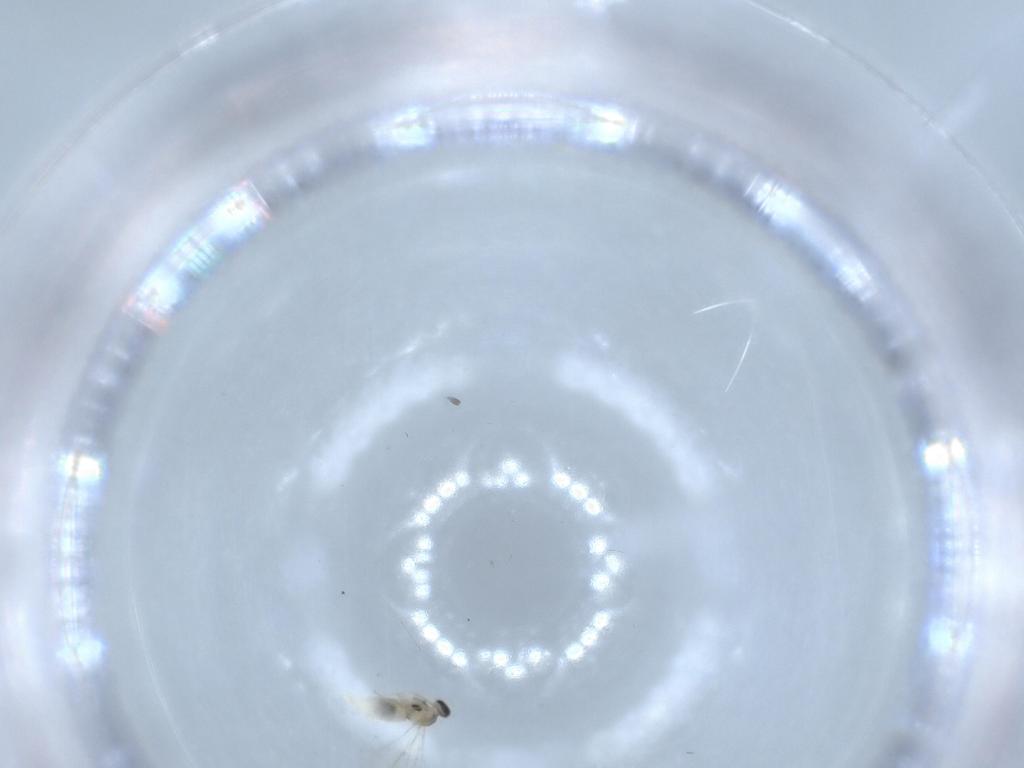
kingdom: Animalia
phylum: Arthropoda
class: Insecta
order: Diptera
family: Cecidomyiidae
